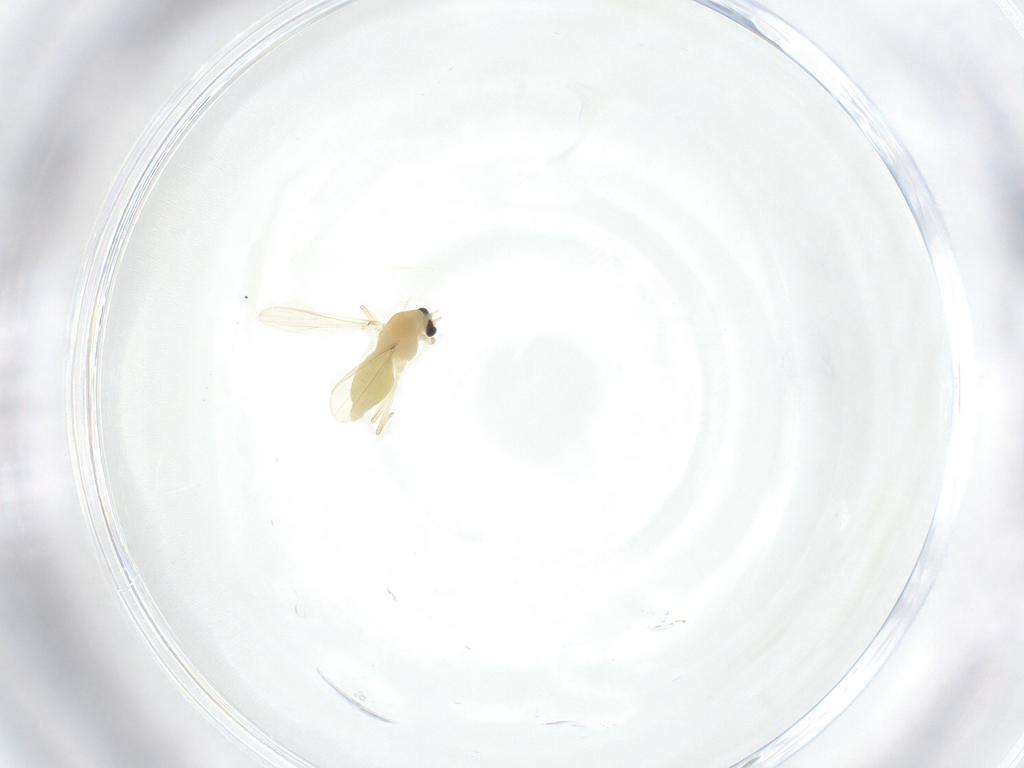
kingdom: Animalia
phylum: Arthropoda
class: Insecta
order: Diptera
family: Chironomidae
